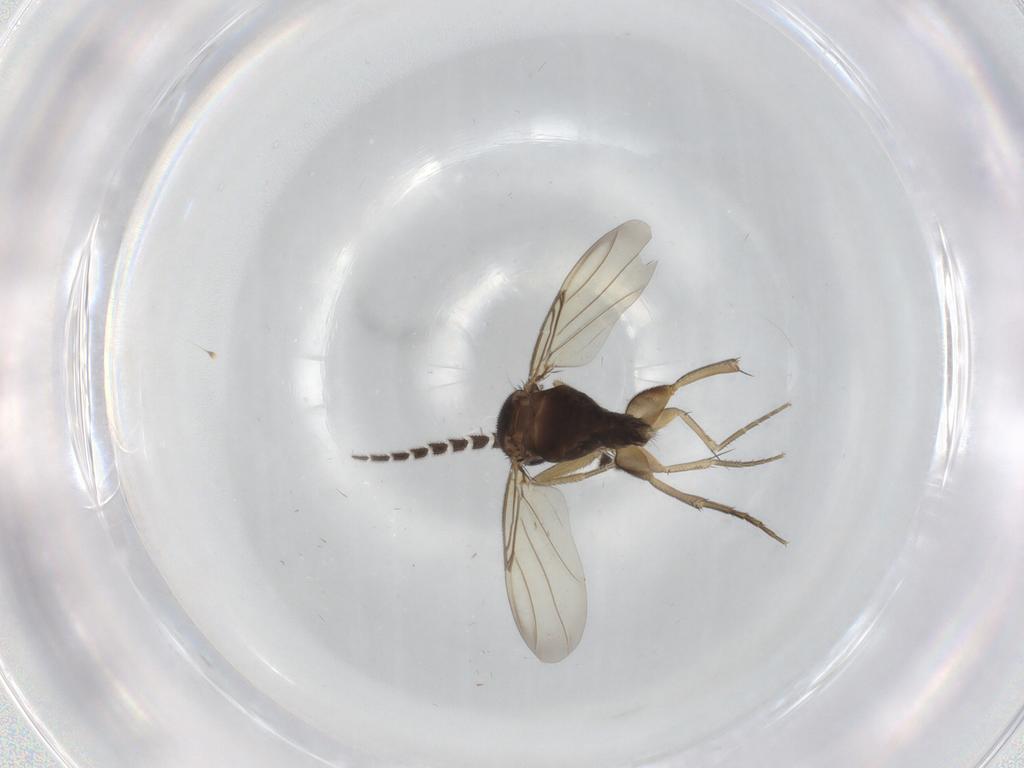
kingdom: Animalia
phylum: Arthropoda
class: Insecta
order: Diptera
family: Phoridae
